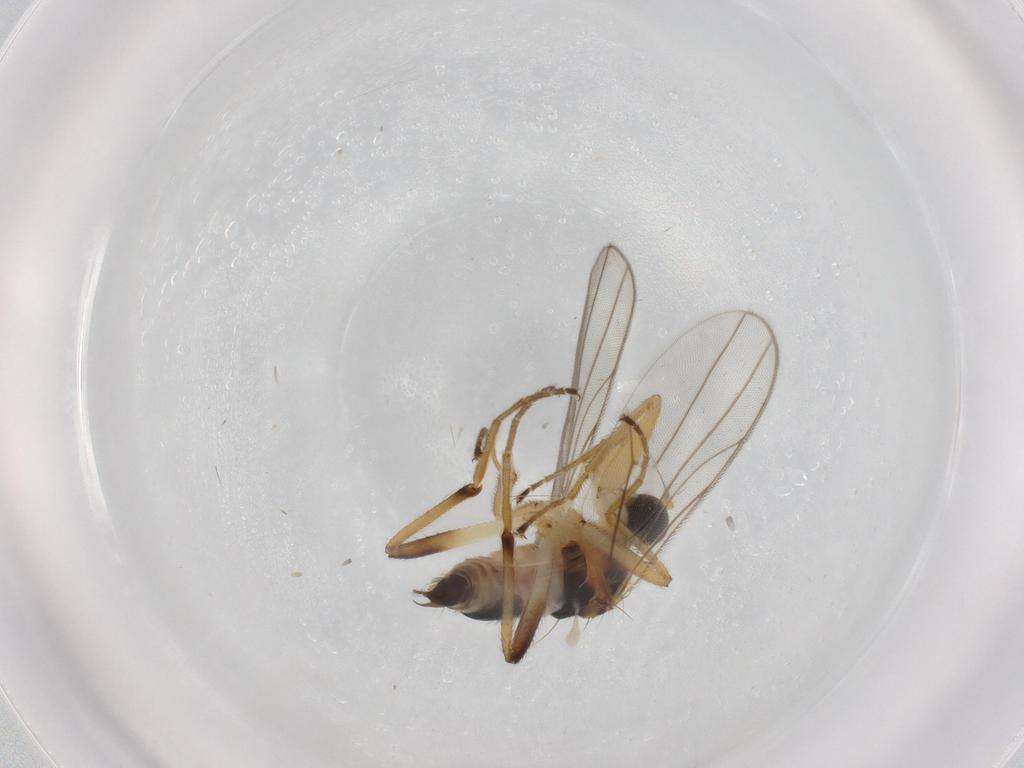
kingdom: Animalia
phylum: Arthropoda
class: Insecta
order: Diptera
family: Hybotidae
